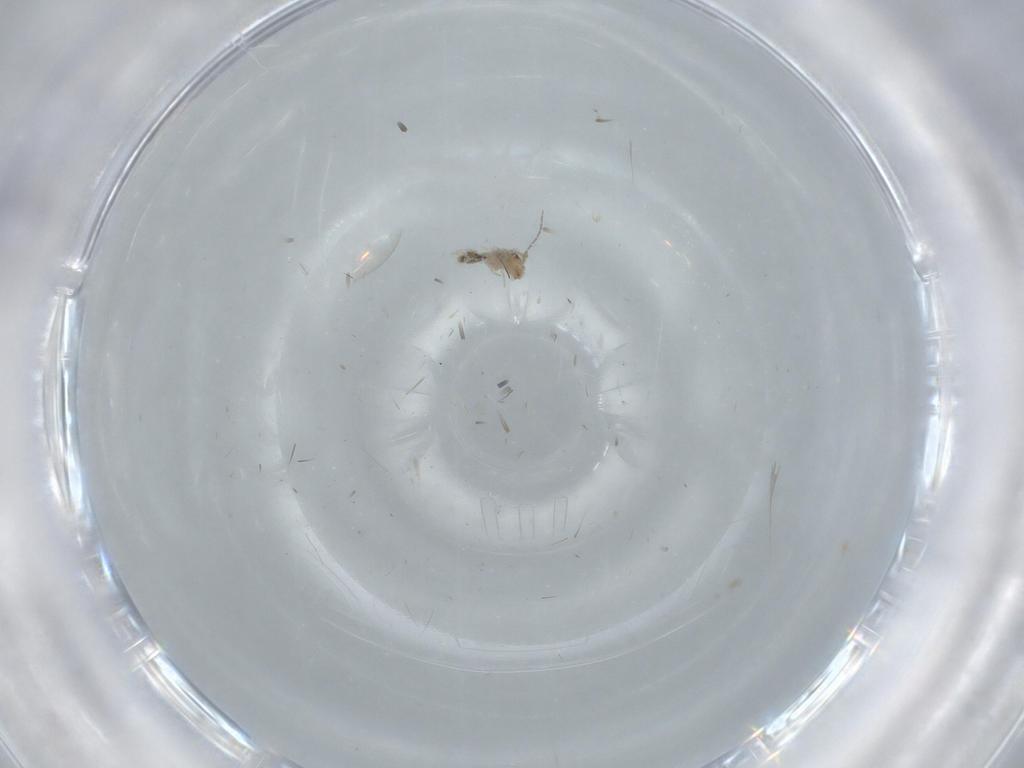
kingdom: Animalia
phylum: Arthropoda
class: Insecta
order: Psocodea
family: Lepidopsocidae
